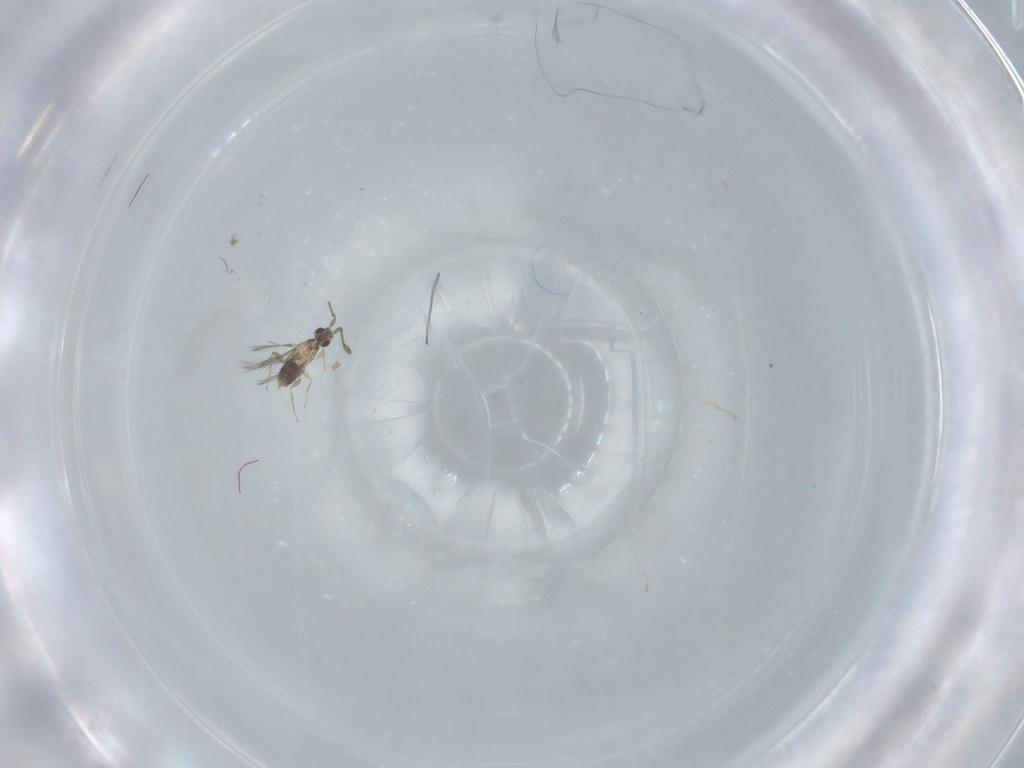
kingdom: Animalia
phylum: Arthropoda
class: Insecta
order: Hymenoptera
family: Mymaridae
